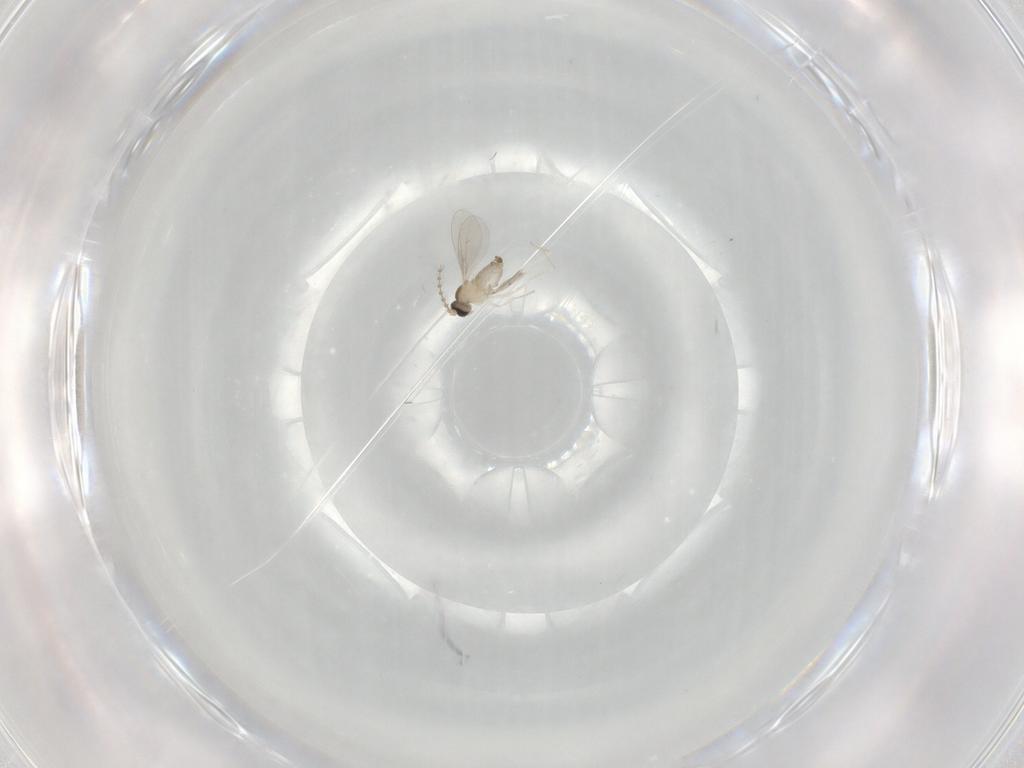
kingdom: Animalia
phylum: Arthropoda
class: Insecta
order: Diptera
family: Cecidomyiidae
